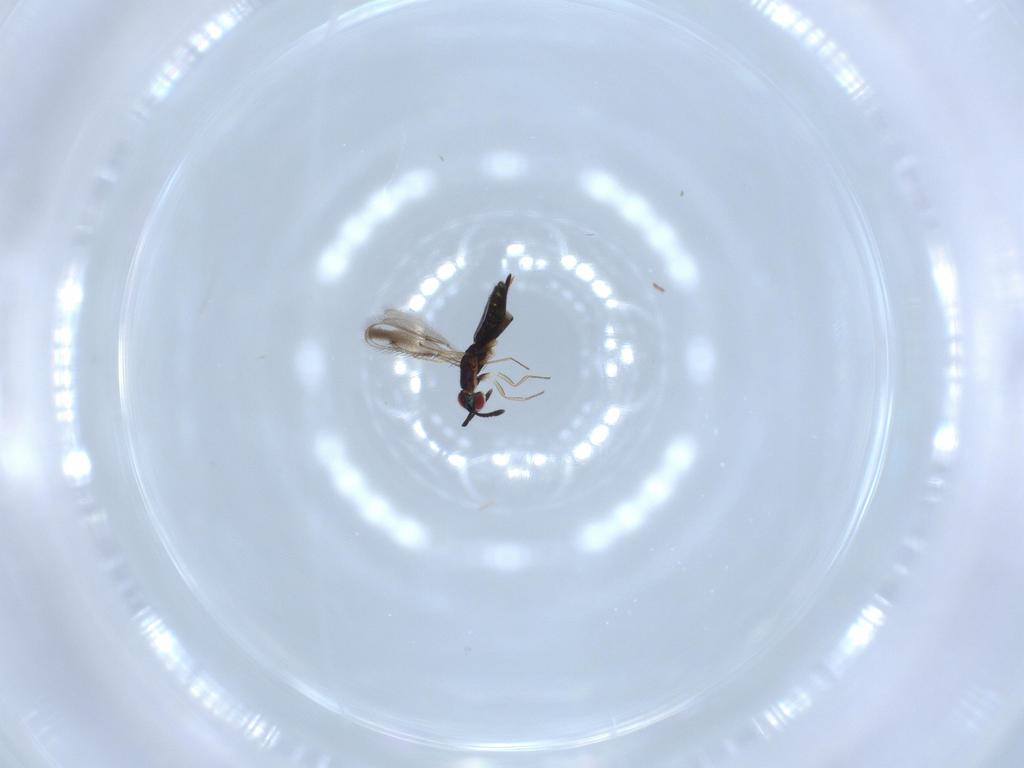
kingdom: Animalia
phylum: Arthropoda
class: Insecta
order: Hymenoptera
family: Pteromalidae
